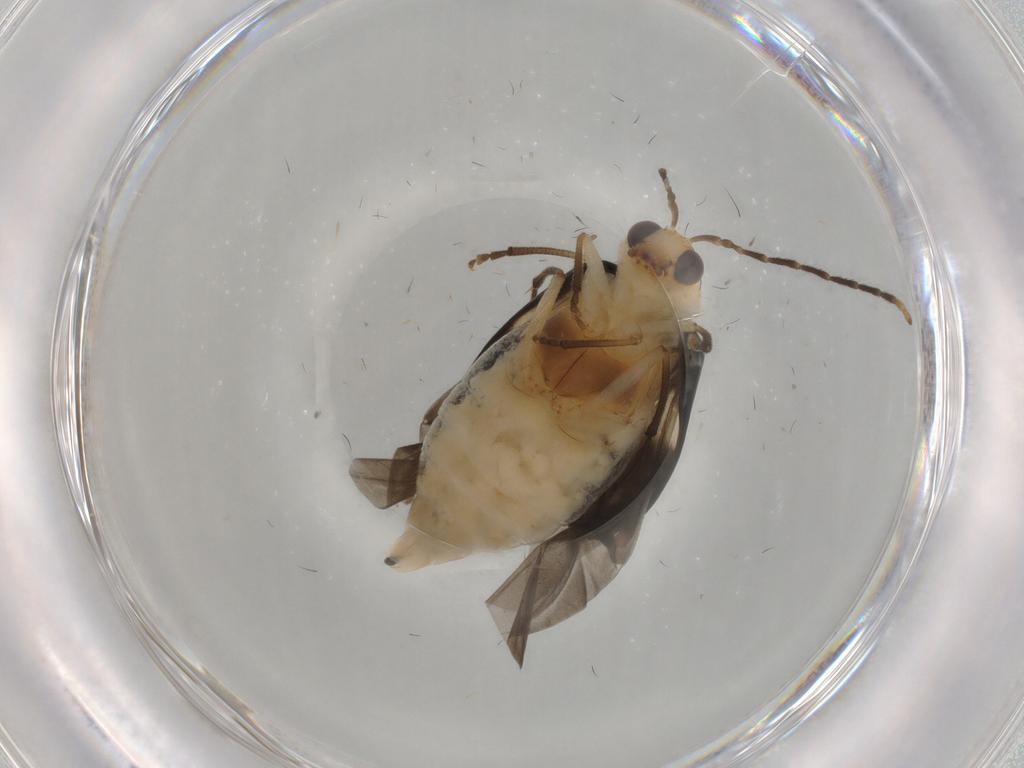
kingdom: Animalia
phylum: Arthropoda
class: Insecta
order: Coleoptera
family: Chrysomelidae
